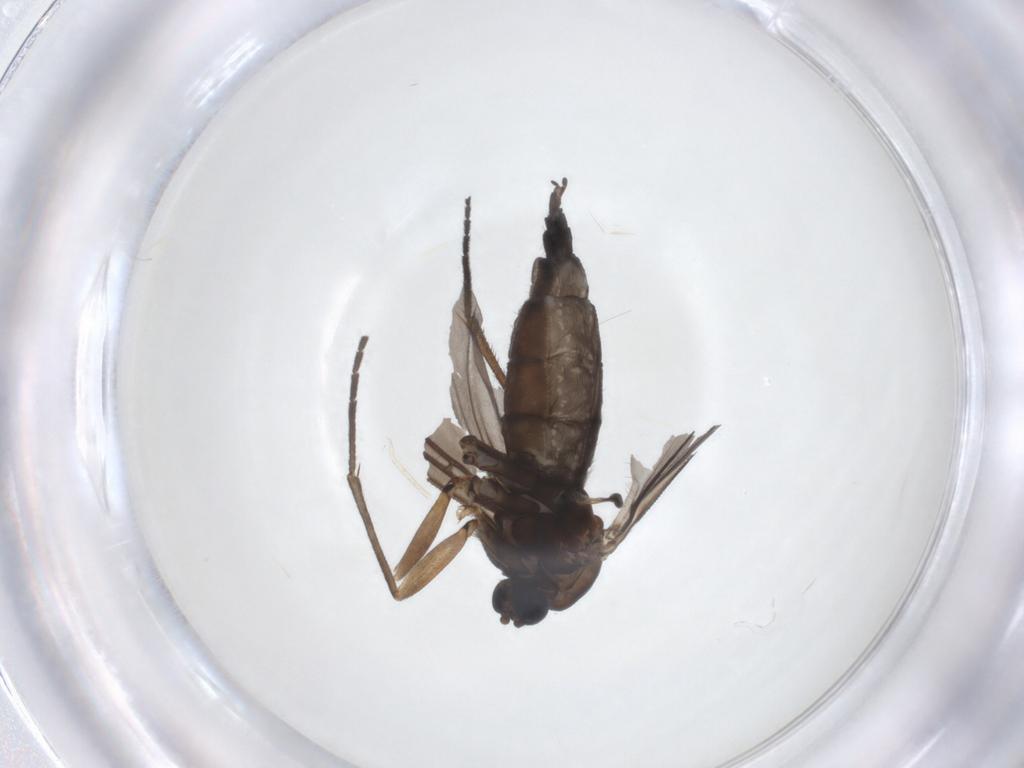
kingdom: Animalia
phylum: Arthropoda
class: Insecta
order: Diptera
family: Sciaridae
